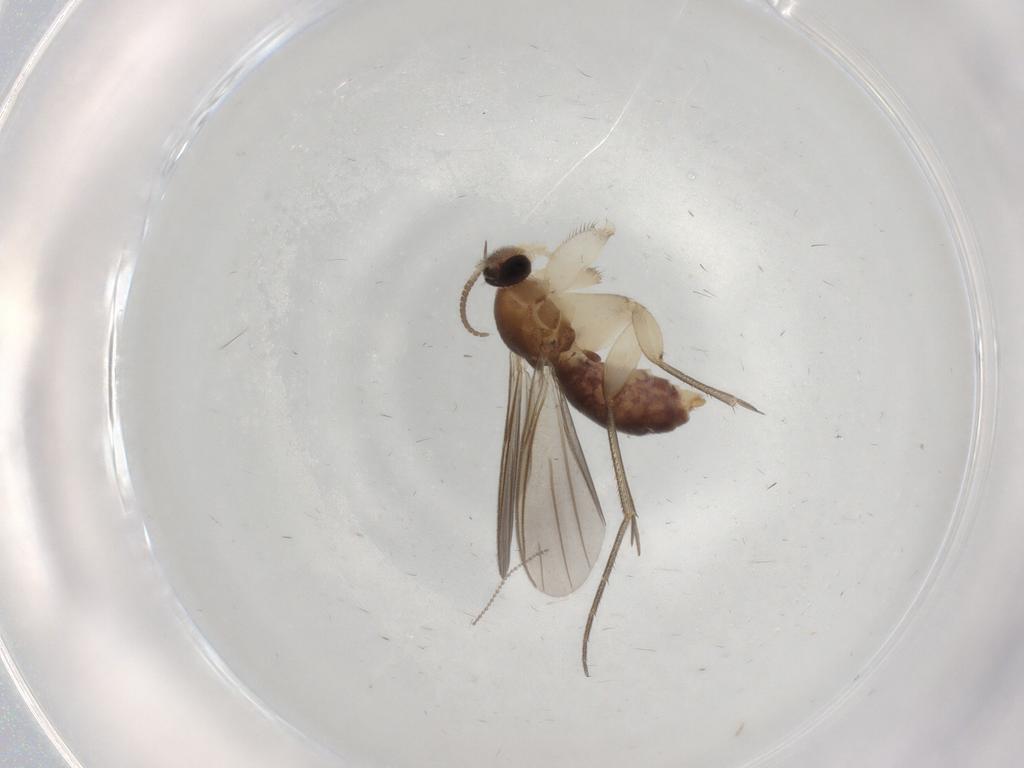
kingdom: Animalia
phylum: Arthropoda
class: Insecta
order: Diptera
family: Mycetophilidae
